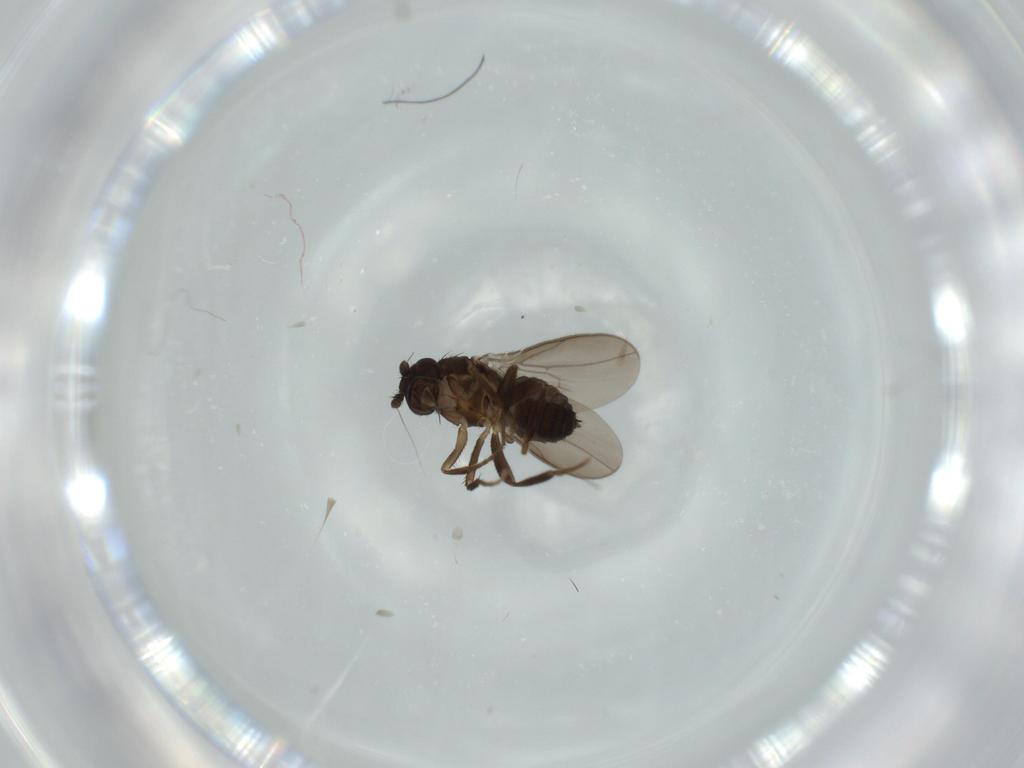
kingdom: Animalia
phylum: Arthropoda
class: Insecta
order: Diptera
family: Sphaeroceridae
